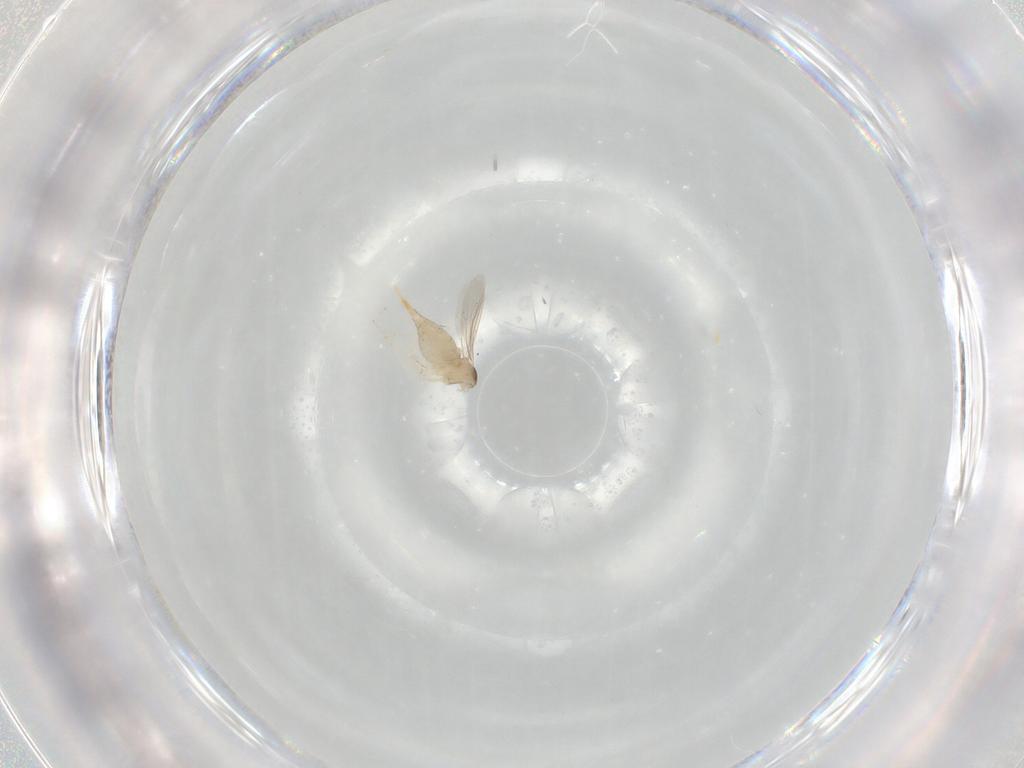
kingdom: Animalia
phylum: Arthropoda
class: Insecta
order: Diptera
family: Cecidomyiidae
